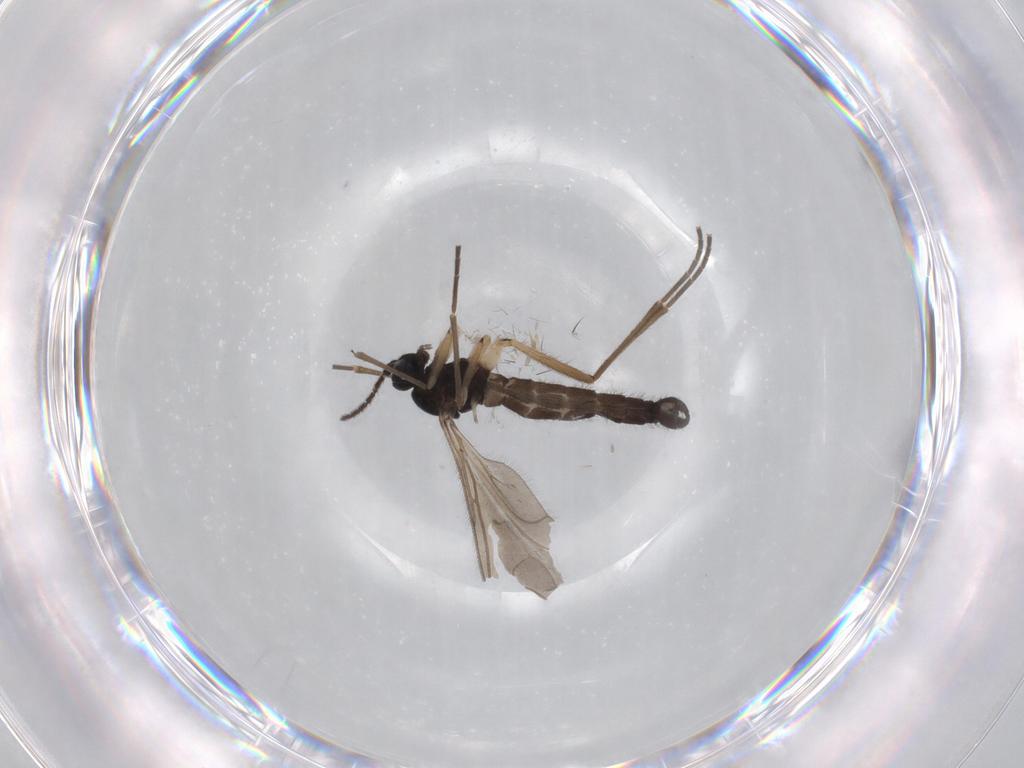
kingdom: Animalia
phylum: Arthropoda
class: Insecta
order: Diptera
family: Sciaridae
